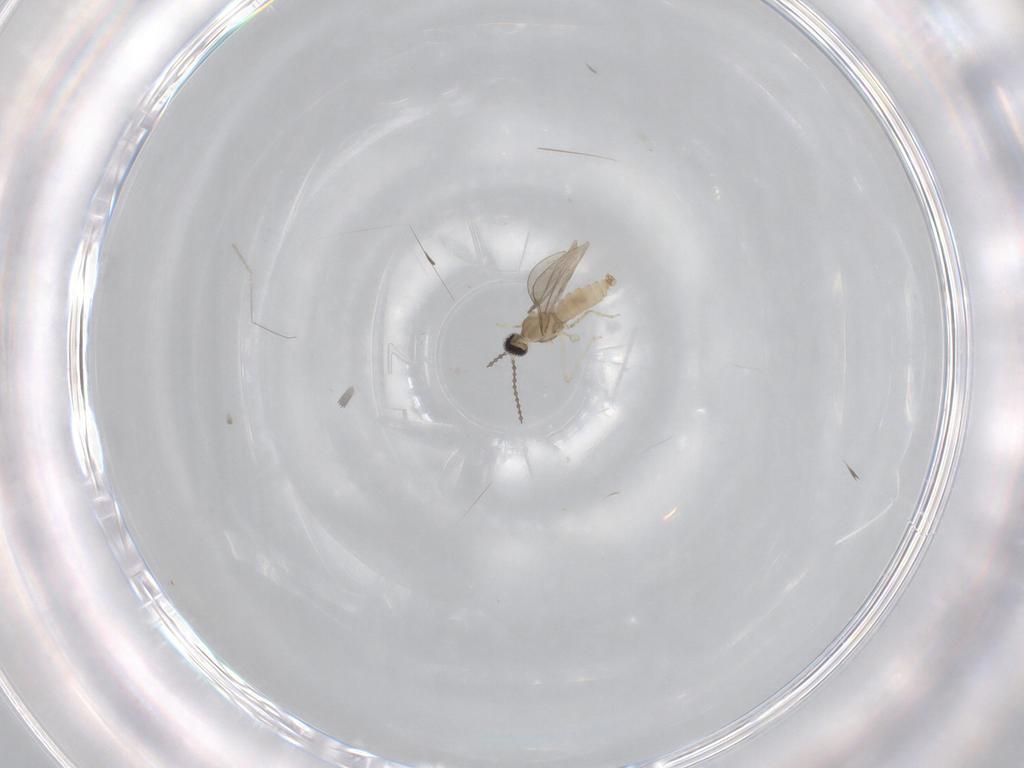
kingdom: Animalia
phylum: Arthropoda
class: Insecta
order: Diptera
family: Cecidomyiidae
